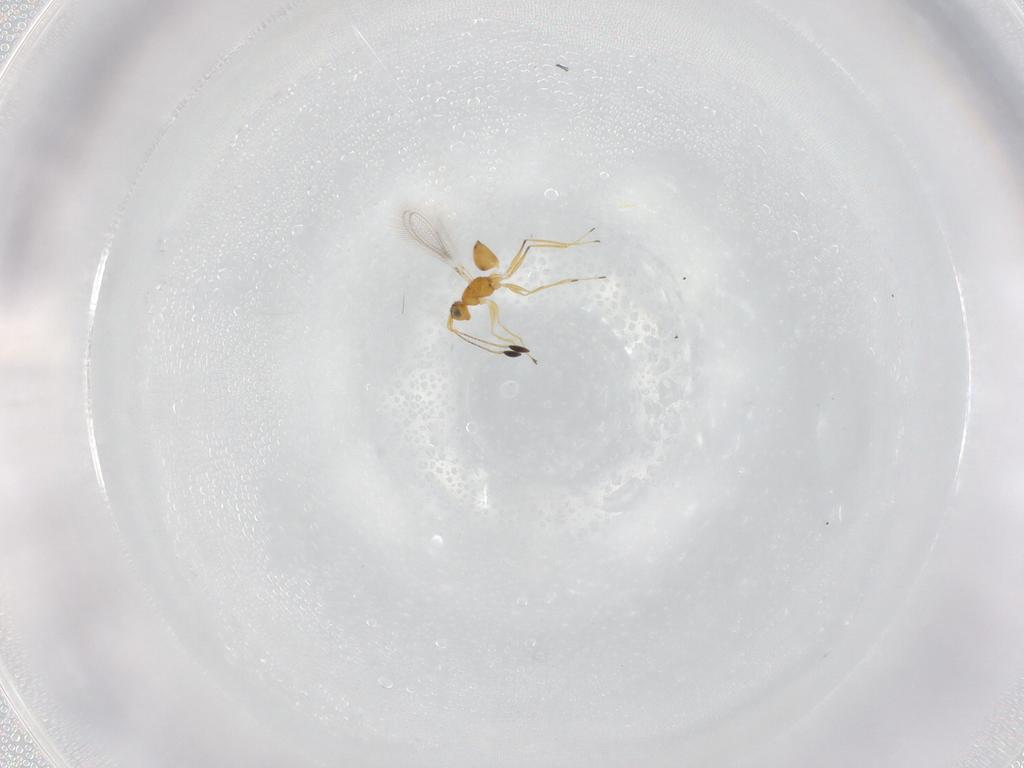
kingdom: Animalia
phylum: Arthropoda
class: Insecta
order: Hymenoptera
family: Mymaridae
